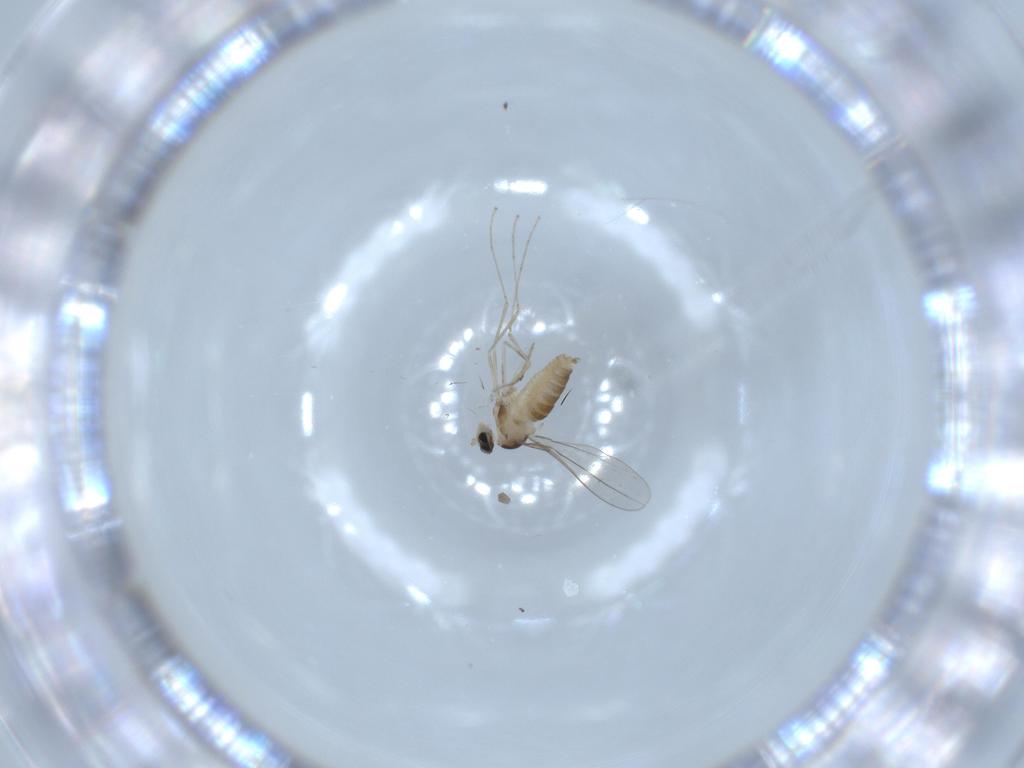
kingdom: Animalia
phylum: Arthropoda
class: Insecta
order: Diptera
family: Cecidomyiidae
